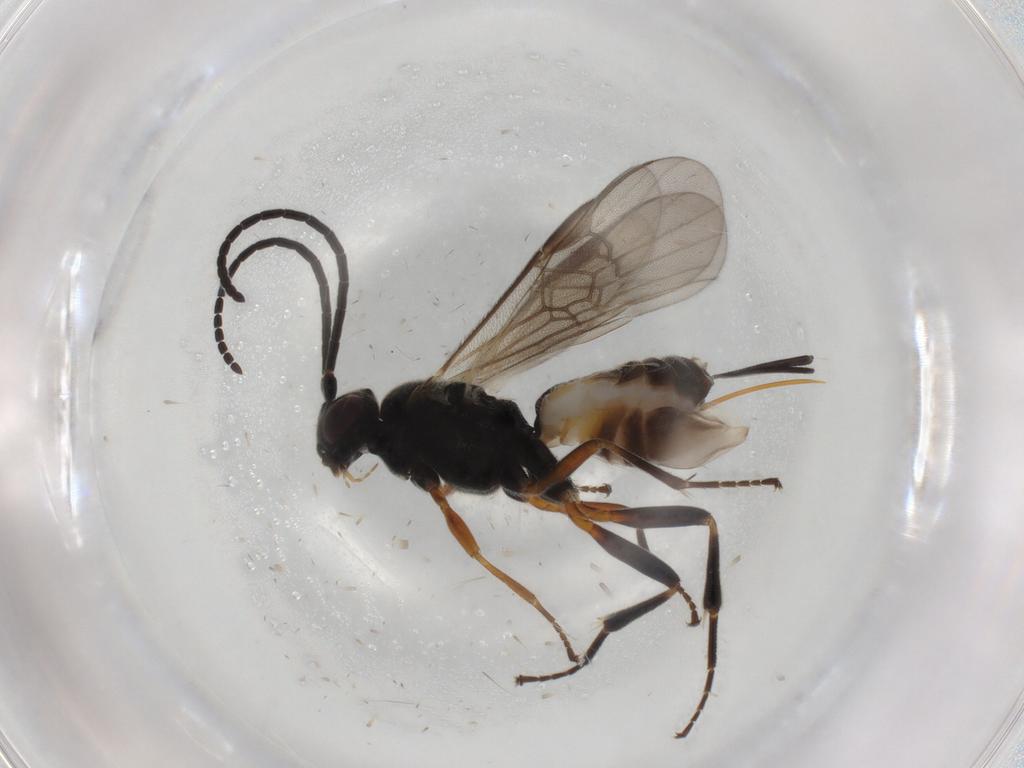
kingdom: Animalia
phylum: Arthropoda
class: Insecta
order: Hymenoptera
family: Braconidae
